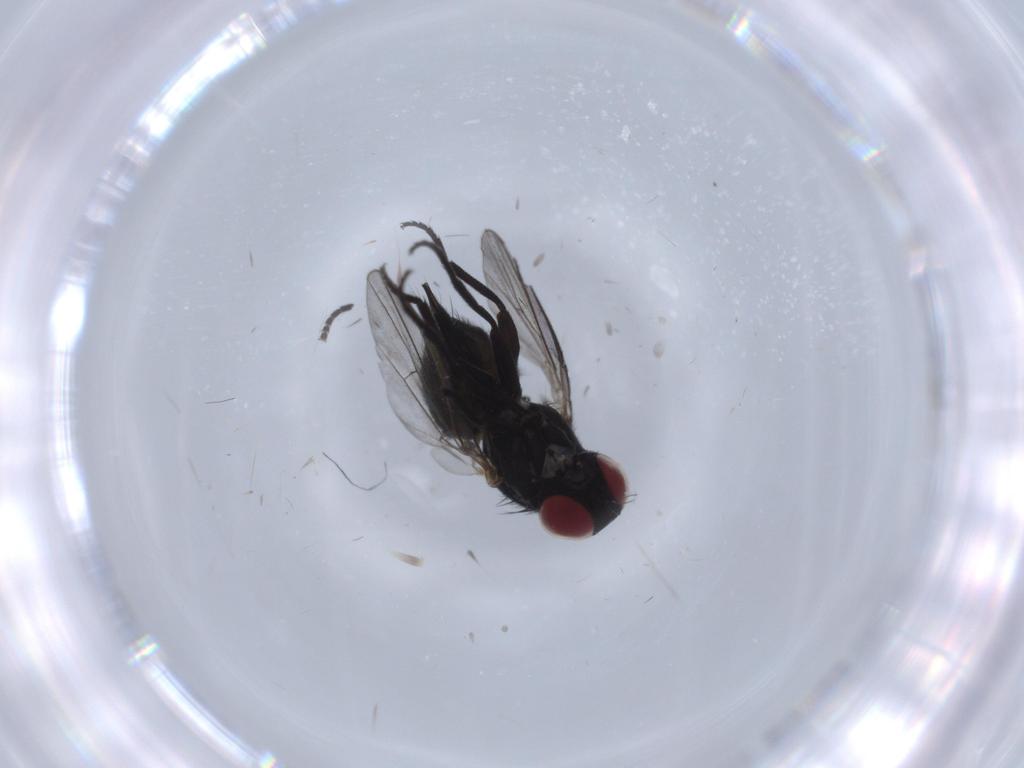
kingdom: Animalia
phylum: Arthropoda
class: Insecta
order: Diptera
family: Agromyzidae
